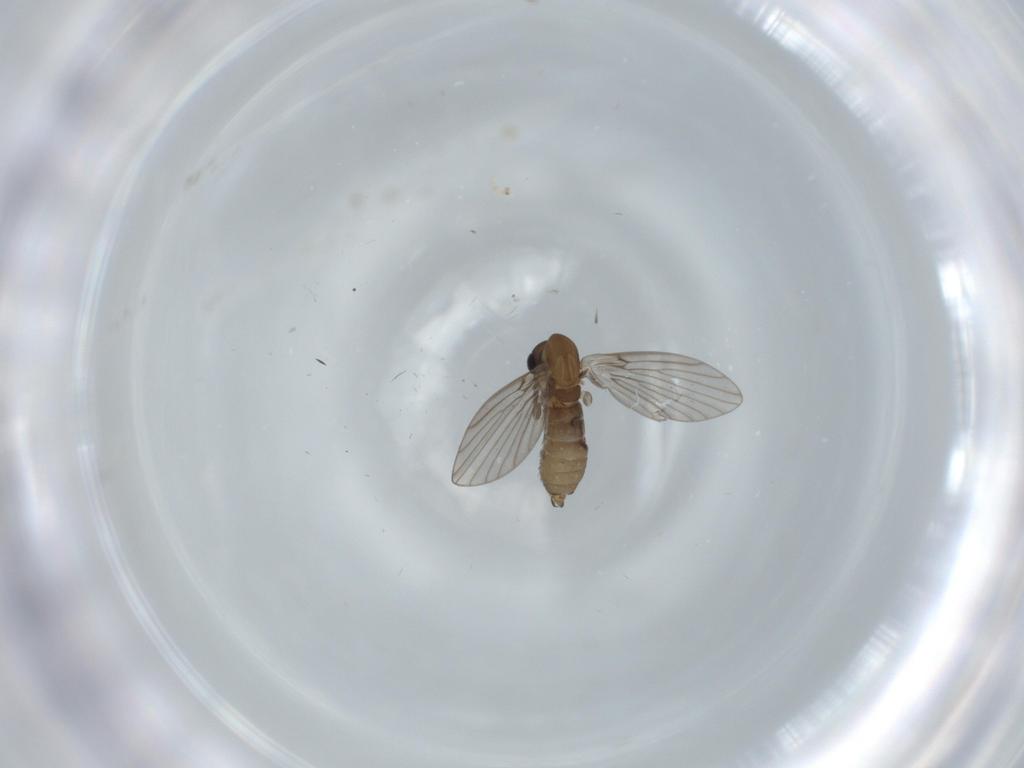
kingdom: Animalia
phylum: Arthropoda
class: Insecta
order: Diptera
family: Psychodidae
